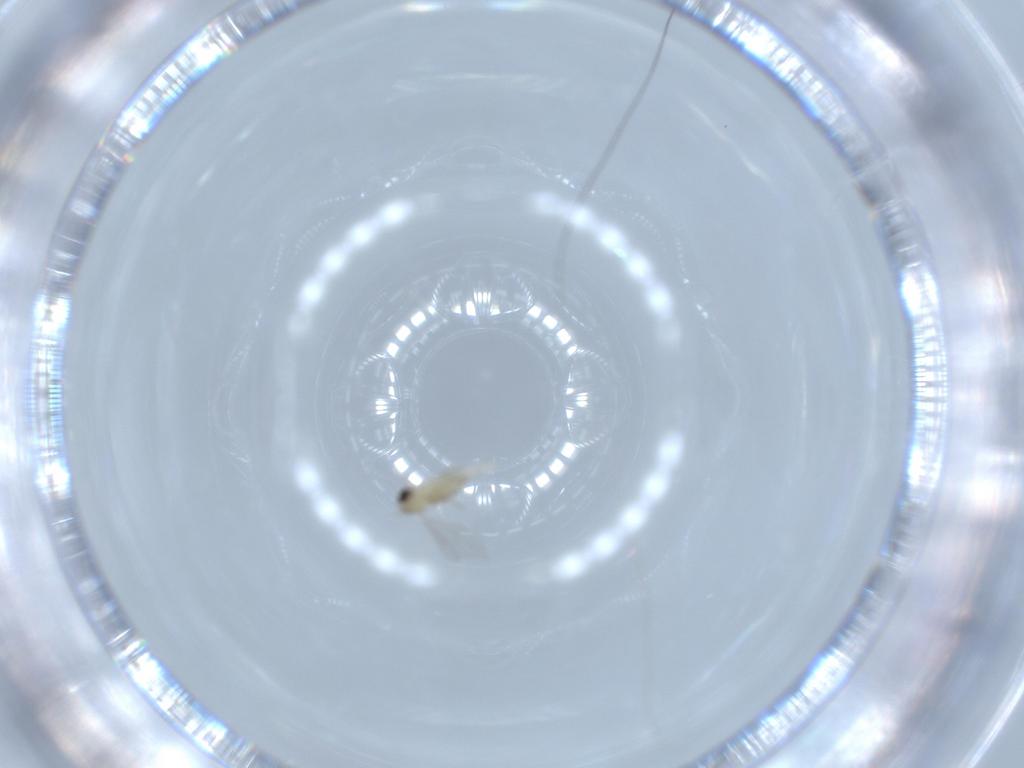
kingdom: Animalia
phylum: Arthropoda
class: Insecta
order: Diptera
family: Cecidomyiidae
